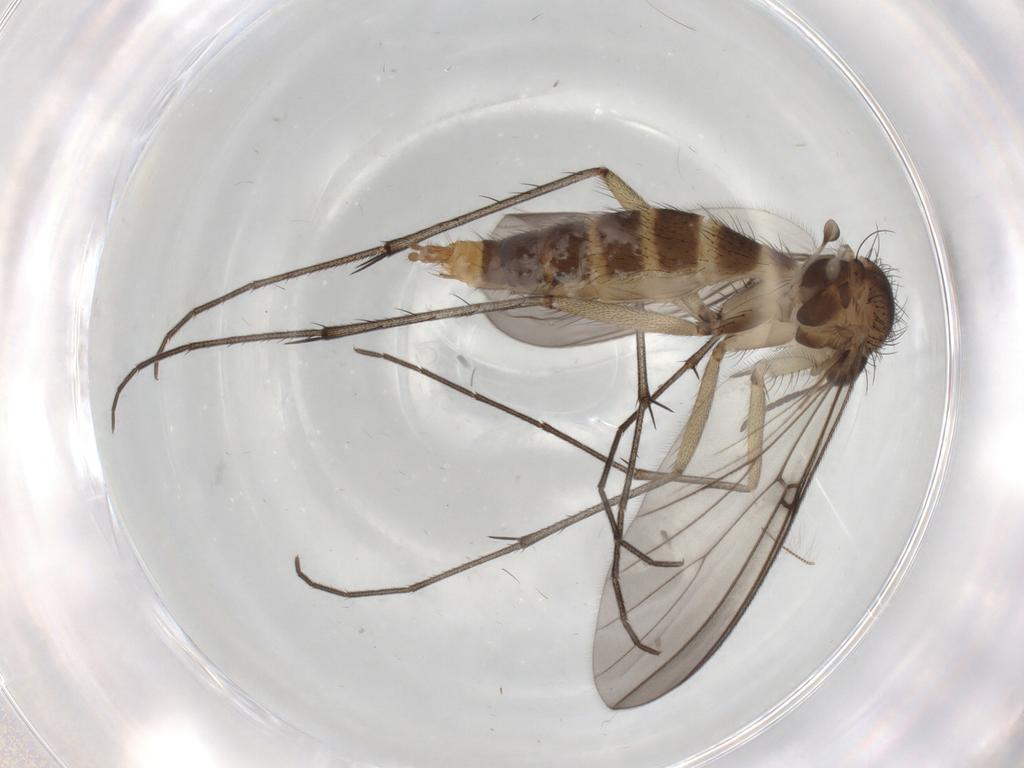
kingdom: Animalia
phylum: Arthropoda
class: Insecta
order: Diptera
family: Mycetophilidae
